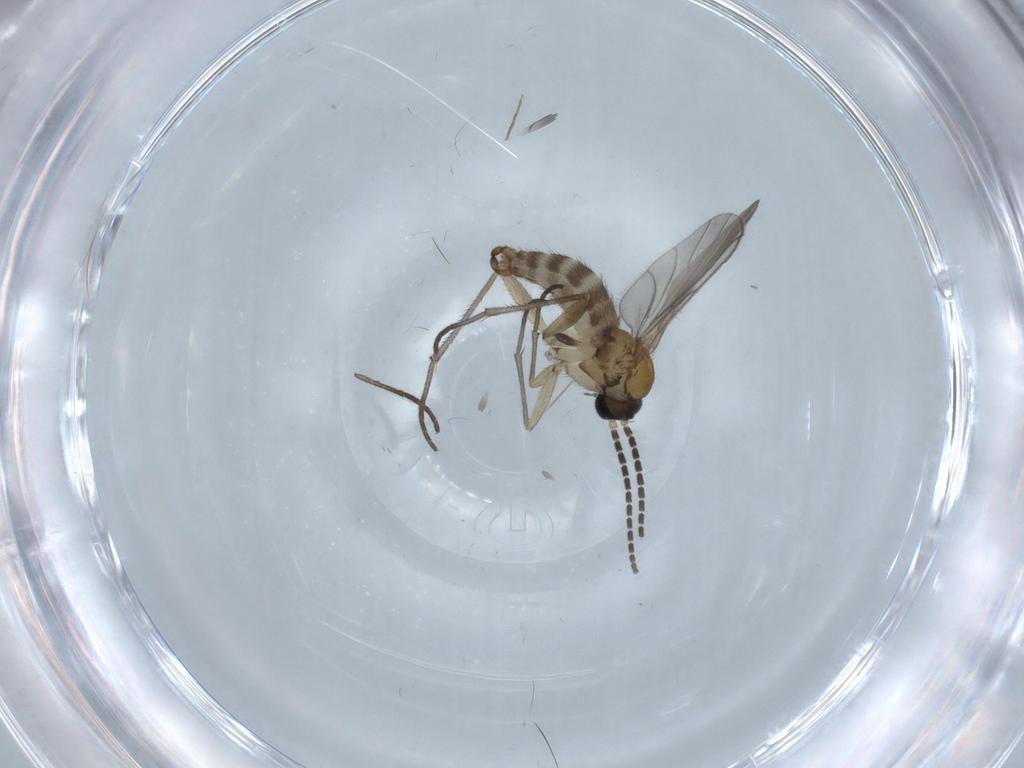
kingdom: Animalia
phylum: Arthropoda
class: Insecta
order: Diptera
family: Sciaridae
